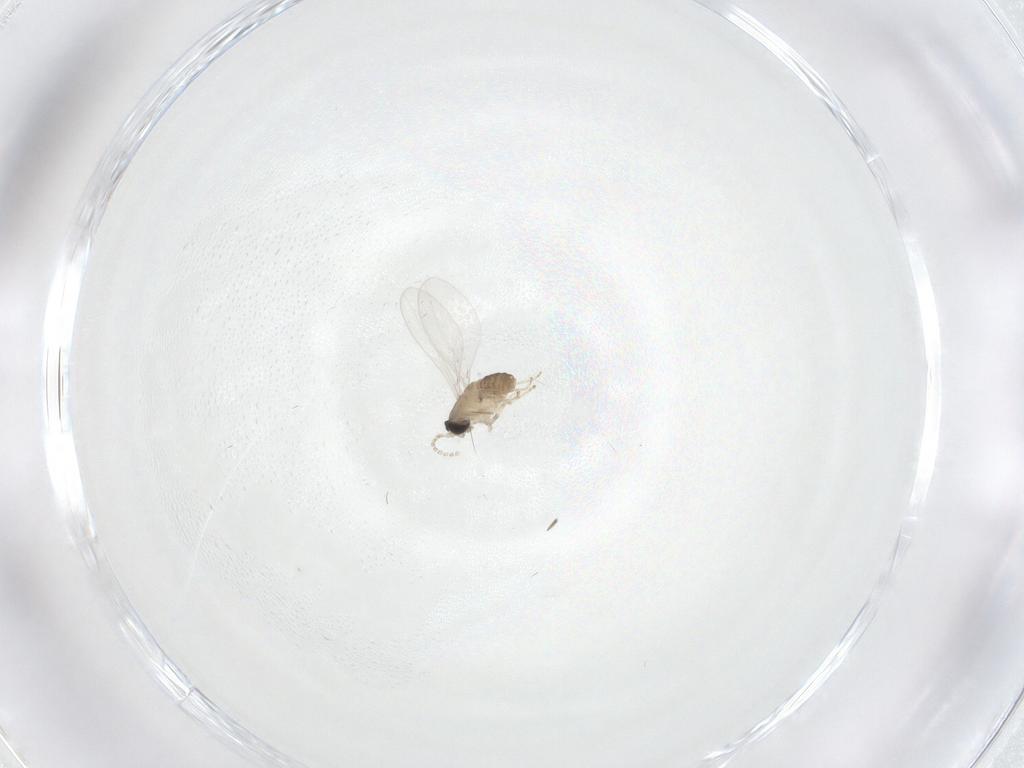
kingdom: Animalia
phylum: Arthropoda
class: Insecta
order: Diptera
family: Cecidomyiidae
